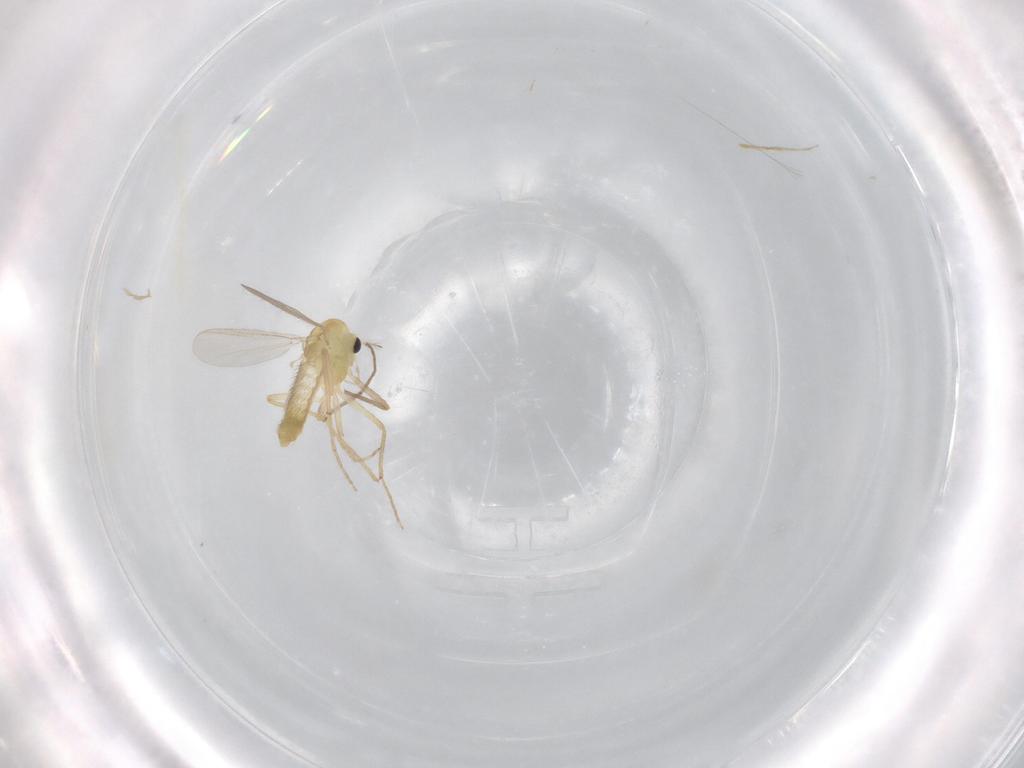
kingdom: Animalia
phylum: Arthropoda
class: Insecta
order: Diptera
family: Chironomidae
